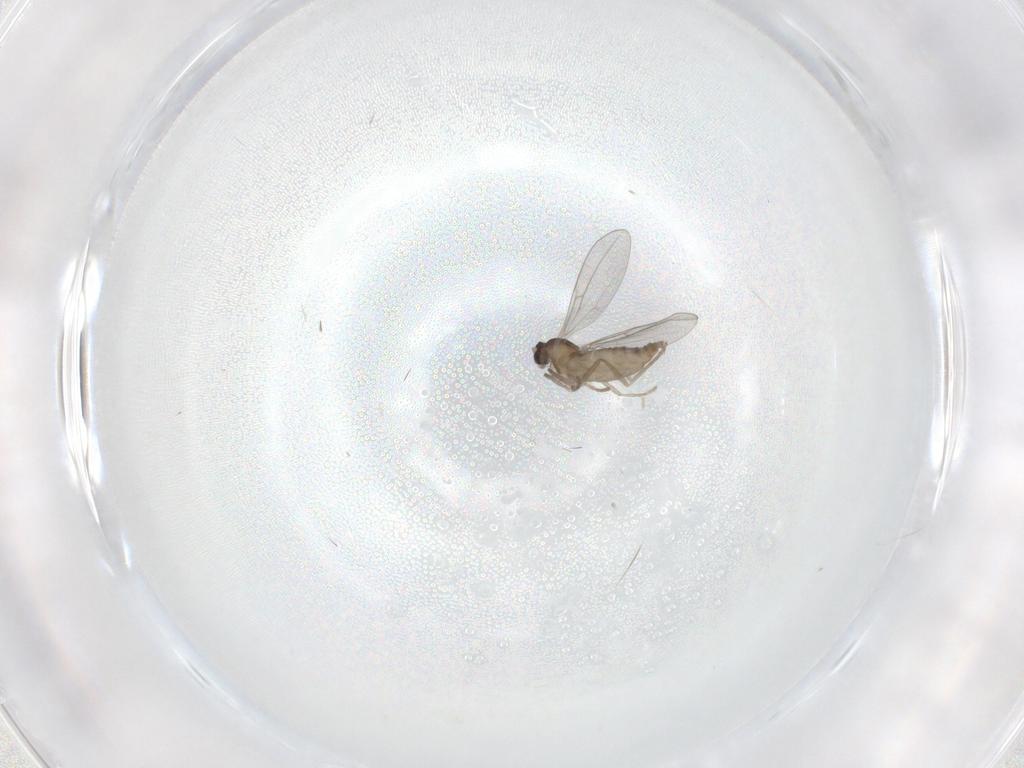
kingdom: Animalia
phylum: Arthropoda
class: Insecta
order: Diptera
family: Cecidomyiidae
